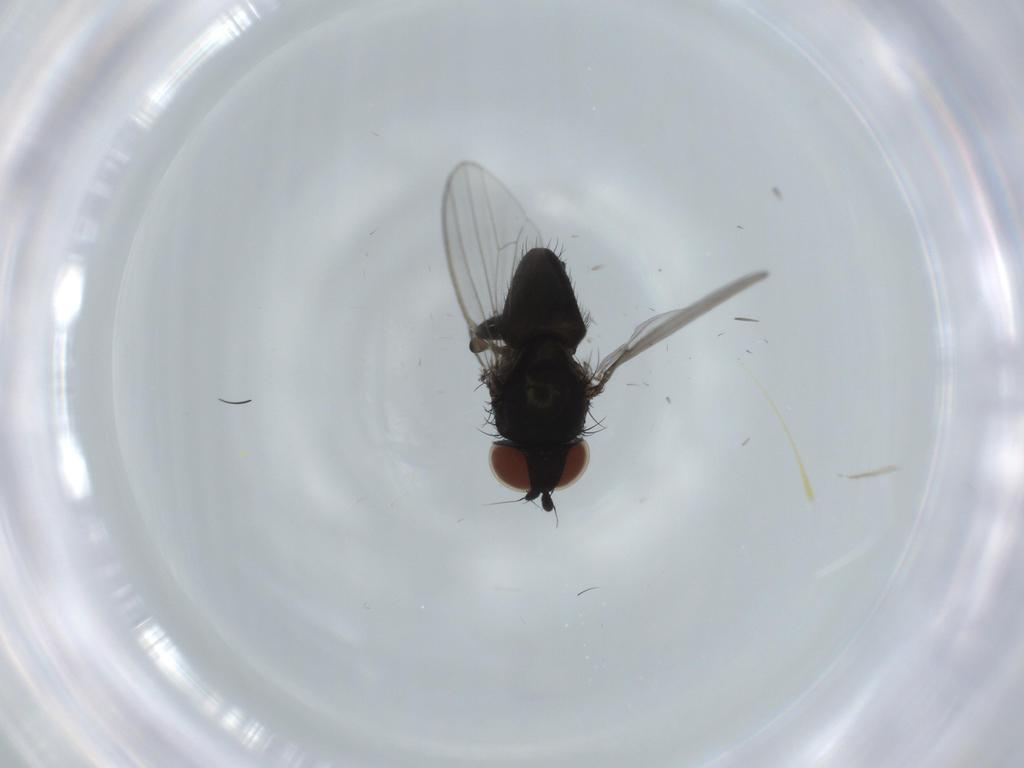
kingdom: Animalia
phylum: Arthropoda
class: Insecta
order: Diptera
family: Milichiidae
